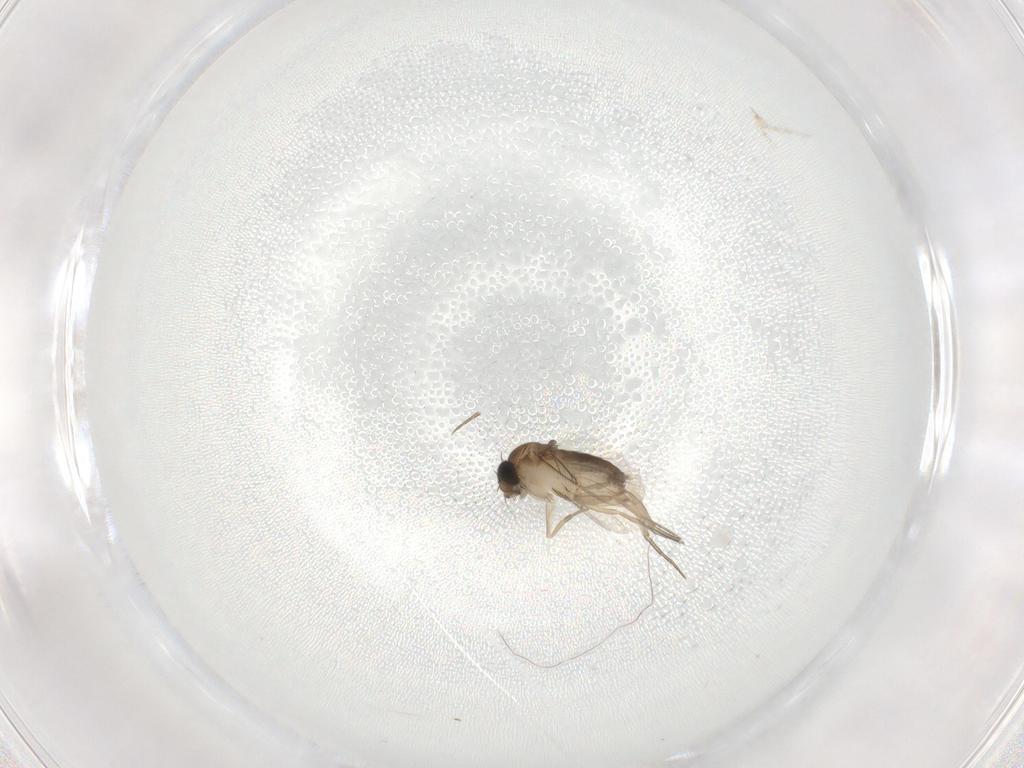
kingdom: Animalia
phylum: Arthropoda
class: Insecta
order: Diptera
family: Phoridae
